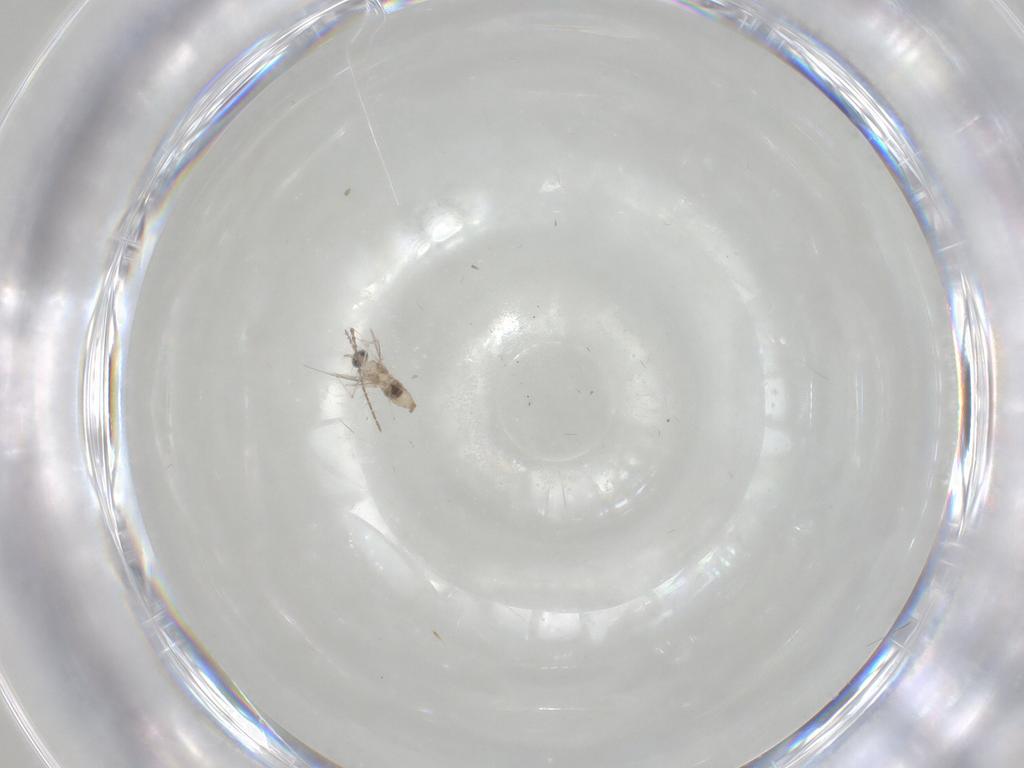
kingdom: Animalia
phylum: Arthropoda
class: Insecta
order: Diptera
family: Cecidomyiidae
